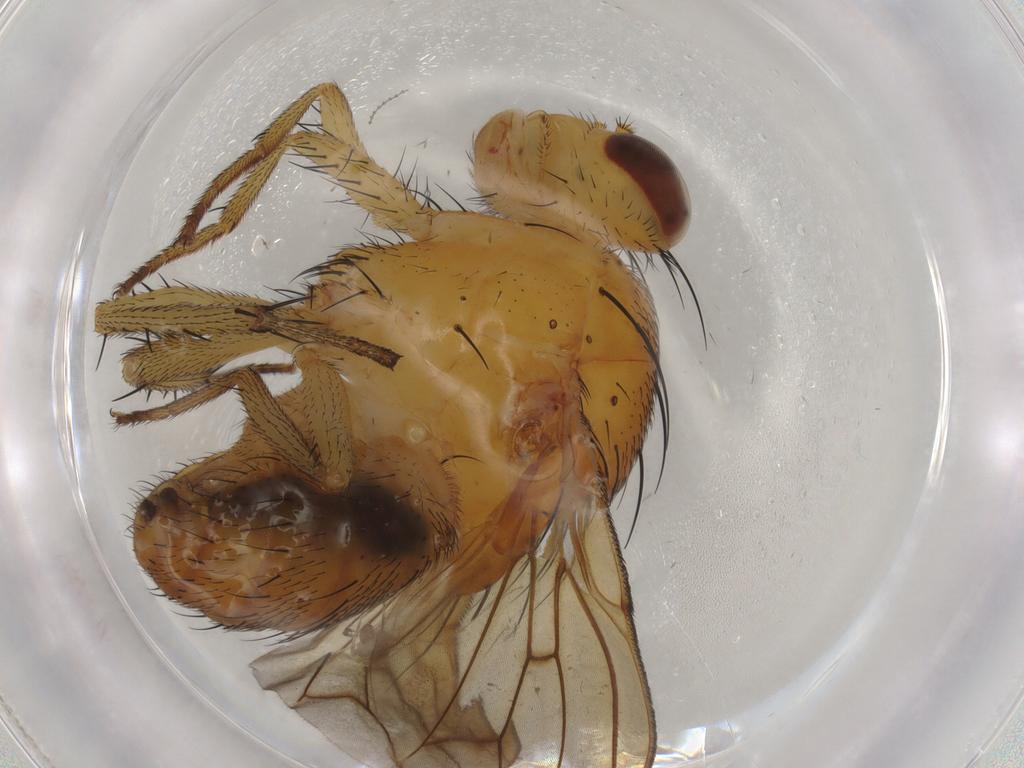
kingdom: Animalia
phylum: Arthropoda
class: Insecta
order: Diptera
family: Lauxaniidae
